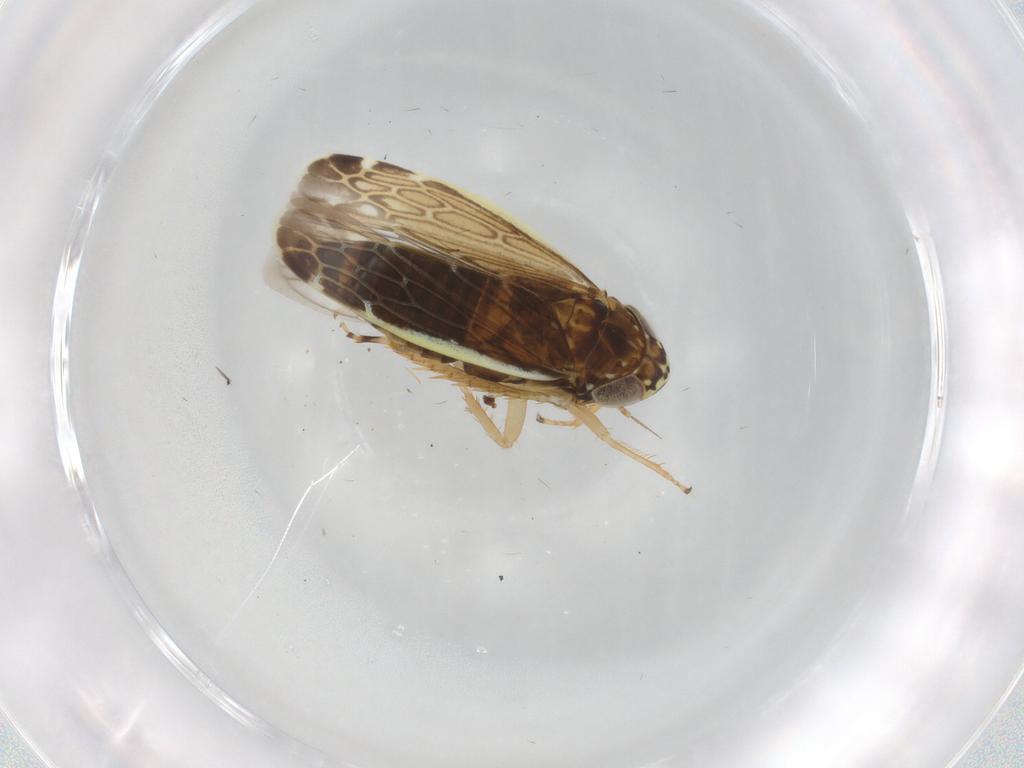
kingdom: Animalia
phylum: Arthropoda
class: Insecta
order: Hemiptera
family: Cicadellidae
